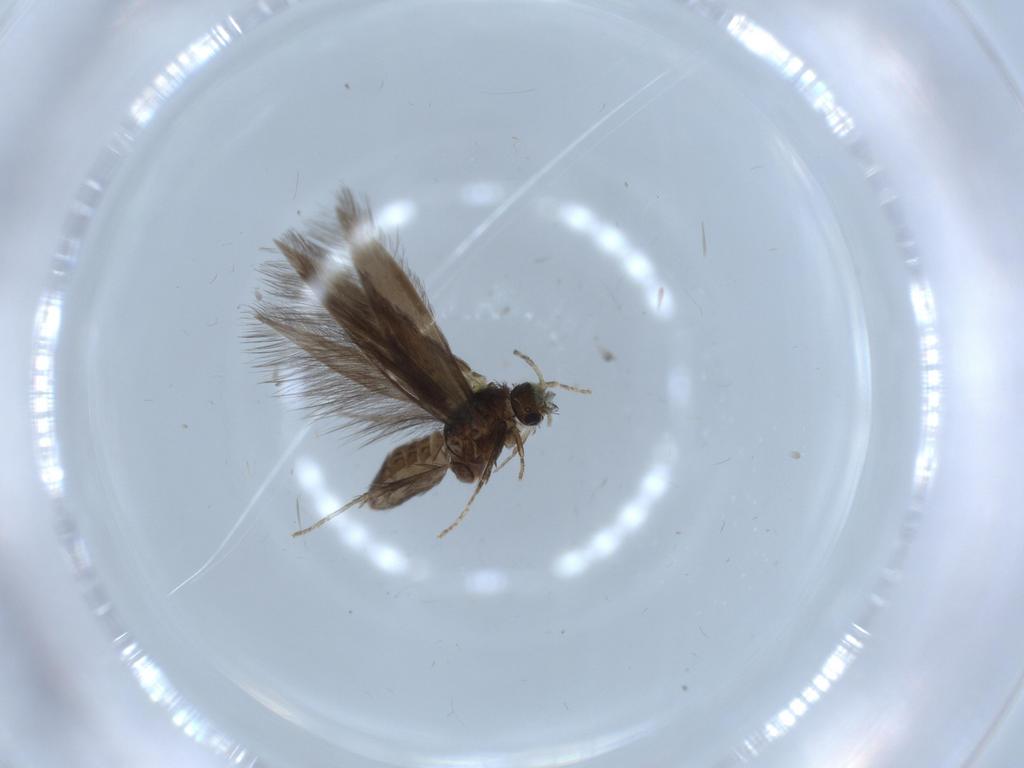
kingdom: Animalia
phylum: Arthropoda
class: Insecta
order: Trichoptera
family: Hydroptilidae
